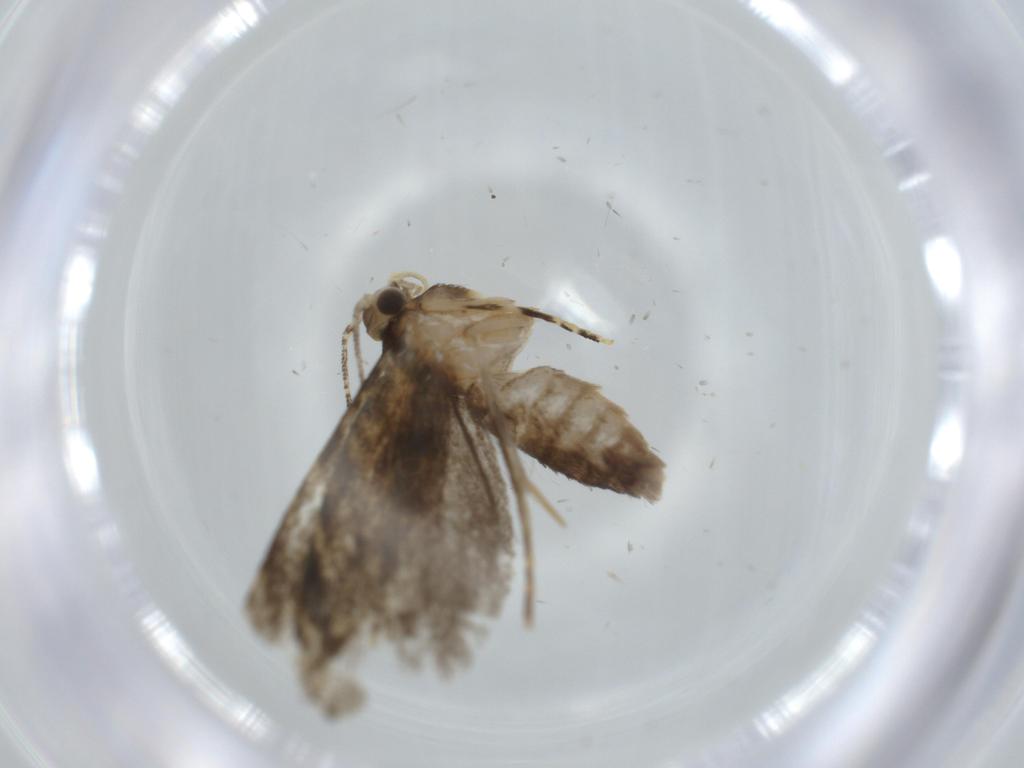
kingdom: Animalia
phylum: Arthropoda
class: Insecta
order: Lepidoptera
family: Tineidae
